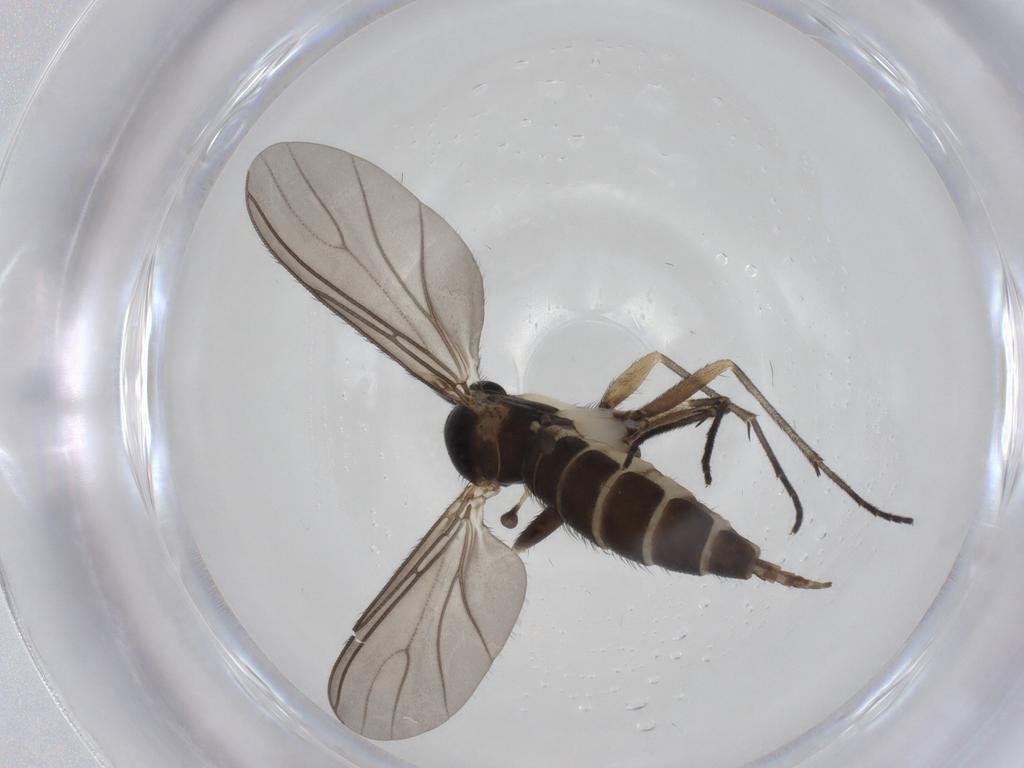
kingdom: Animalia
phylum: Arthropoda
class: Insecta
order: Diptera
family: Sciaridae
